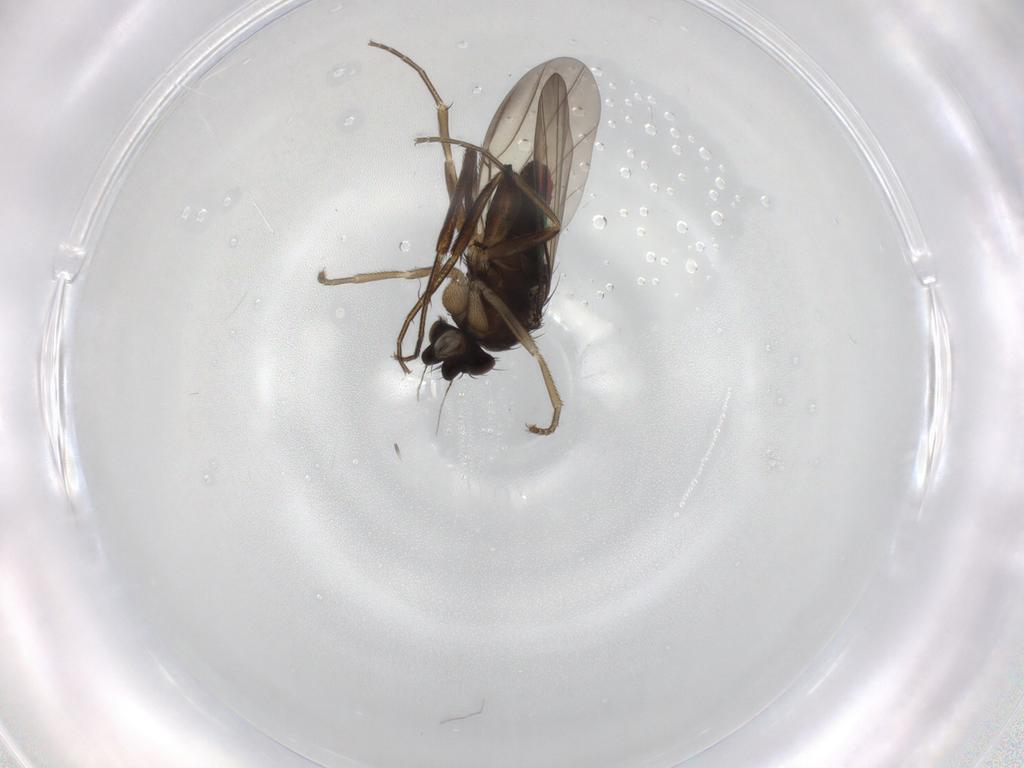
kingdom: Animalia
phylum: Arthropoda
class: Insecta
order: Diptera
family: Phoridae
